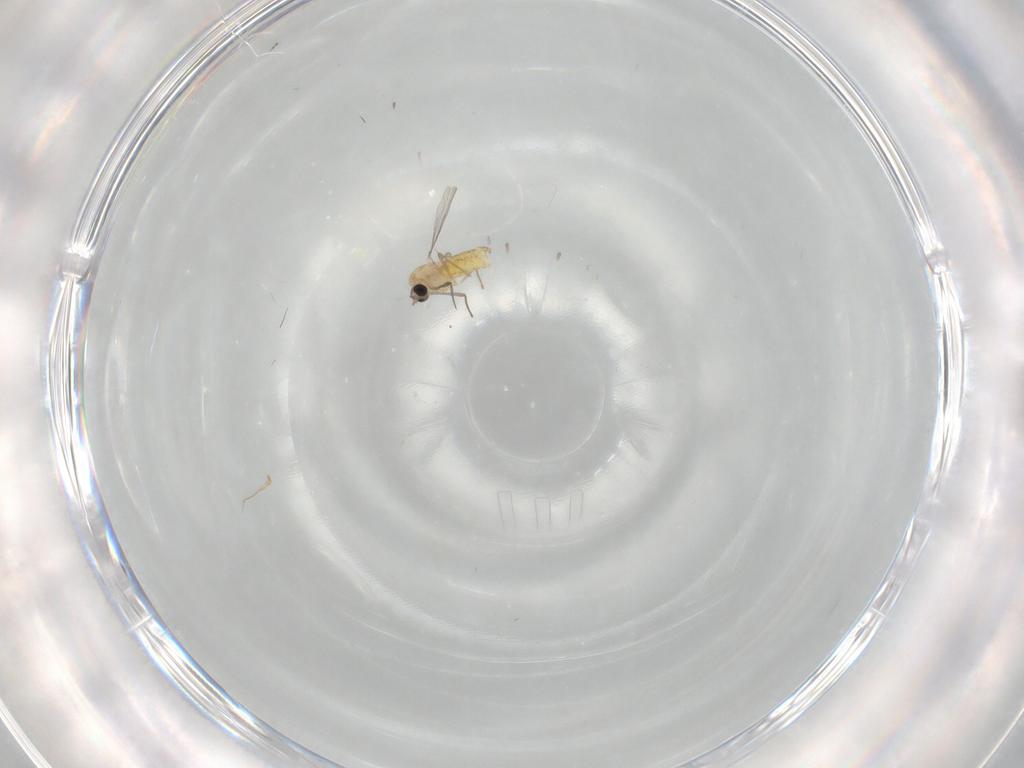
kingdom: Animalia
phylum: Arthropoda
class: Insecta
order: Diptera
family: Chironomidae
